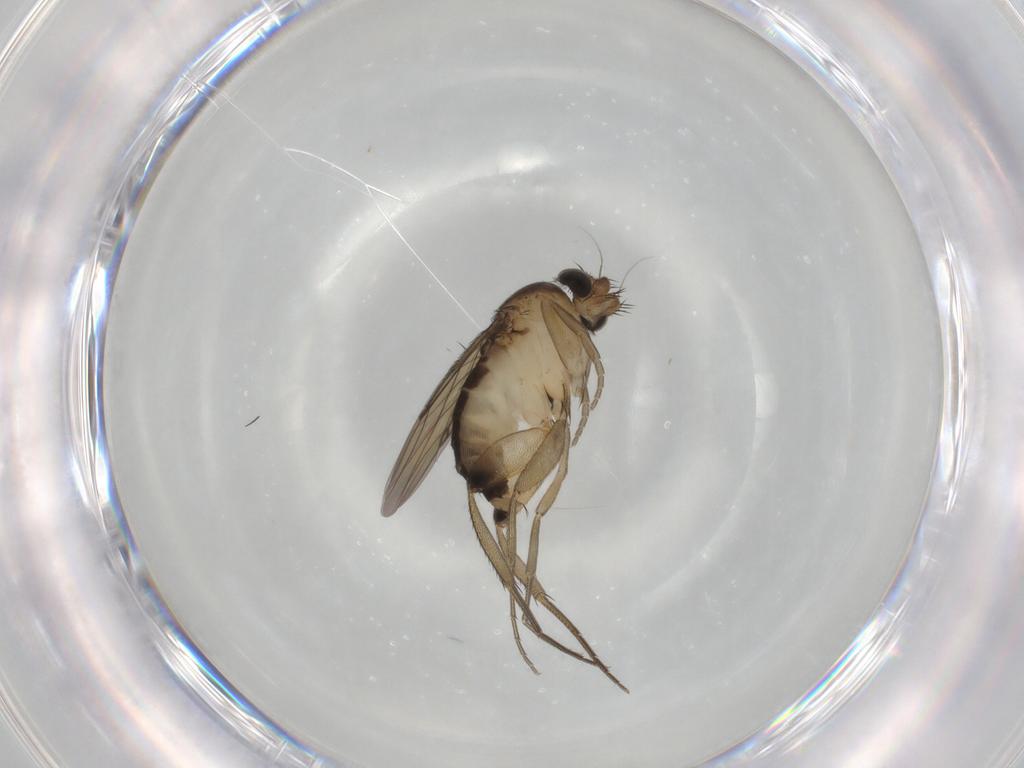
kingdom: Animalia
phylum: Arthropoda
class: Insecta
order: Diptera
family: Phoridae
